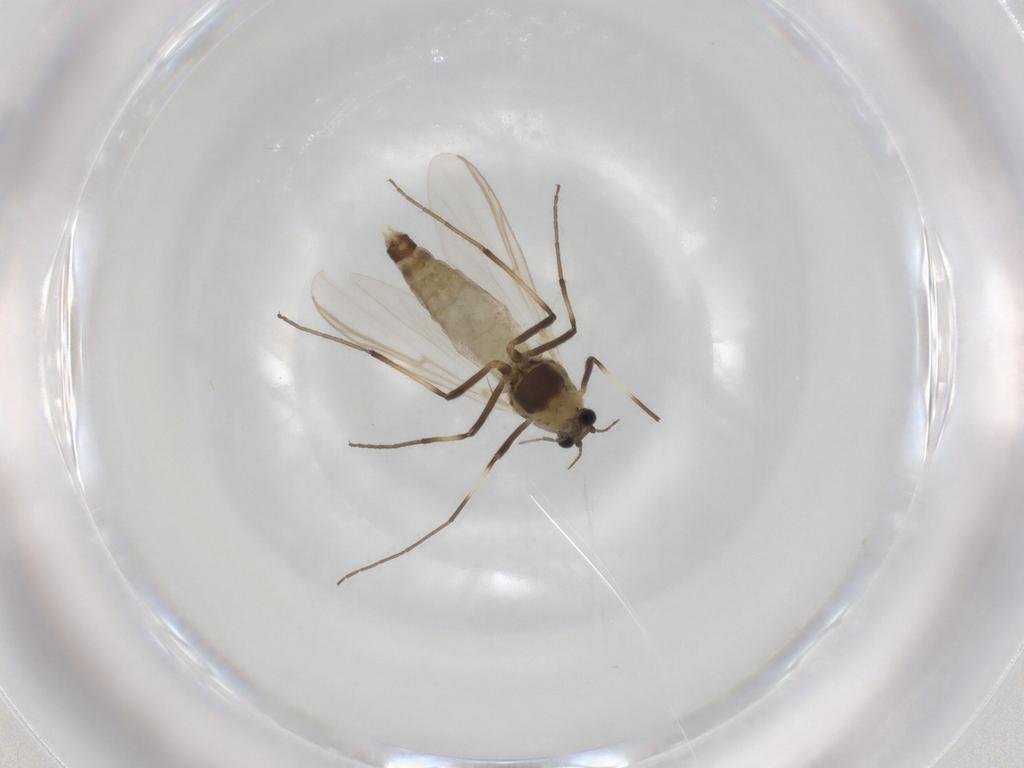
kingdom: Animalia
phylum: Arthropoda
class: Insecta
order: Diptera
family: Chironomidae
